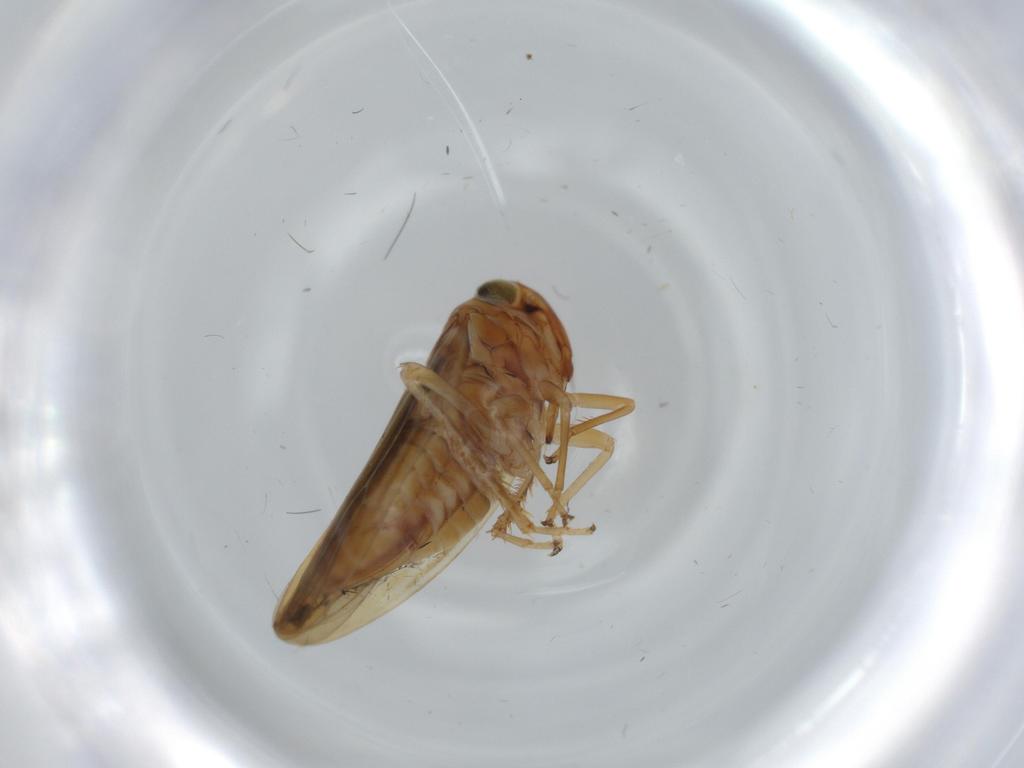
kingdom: Animalia
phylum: Arthropoda
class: Insecta
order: Hemiptera
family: Cicadellidae
